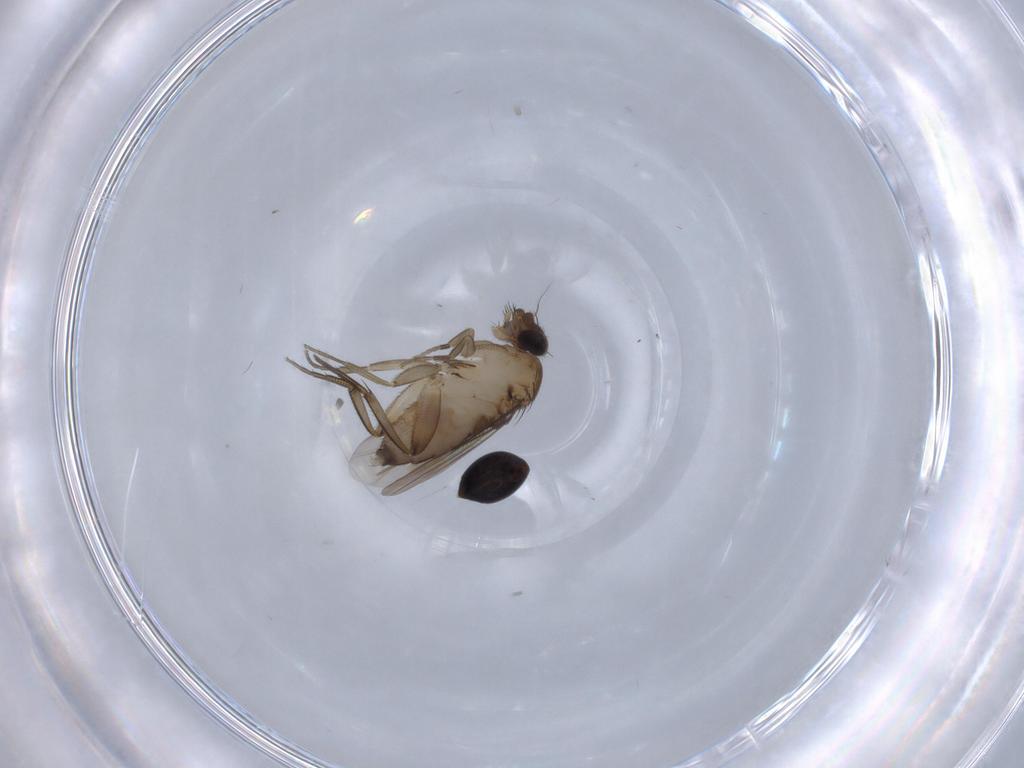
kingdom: Animalia
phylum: Arthropoda
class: Insecta
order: Diptera
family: Phoridae
